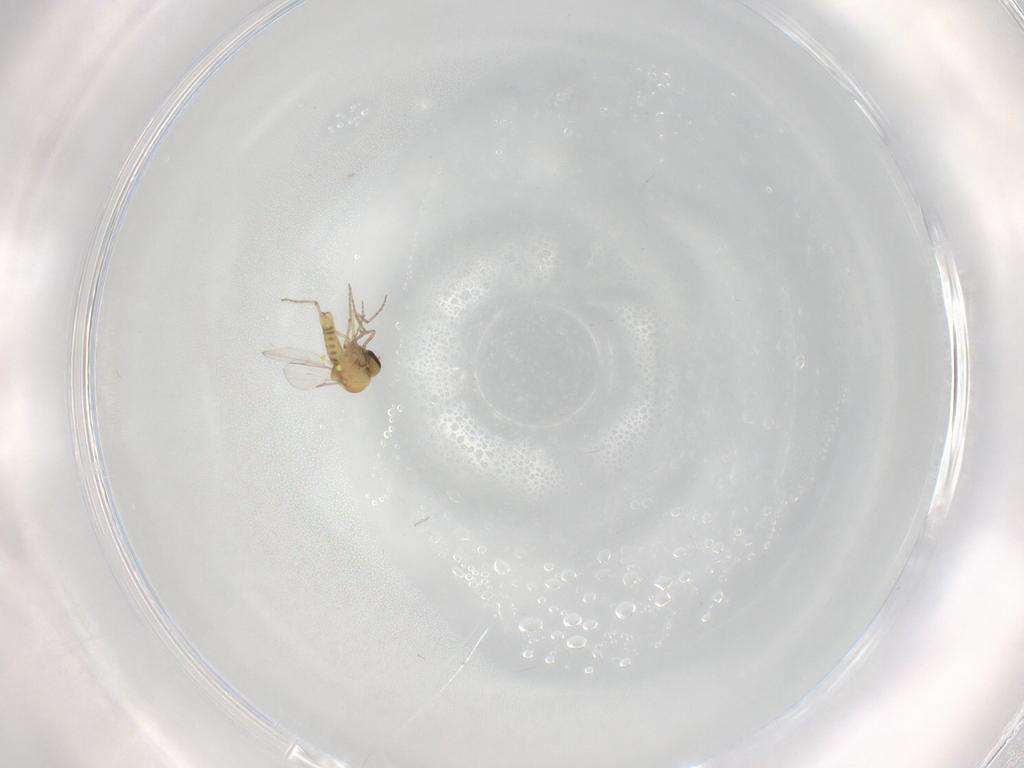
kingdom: Animalia
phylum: Arthropoda
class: Insecta
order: Diptera
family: Ceratopogonidae
